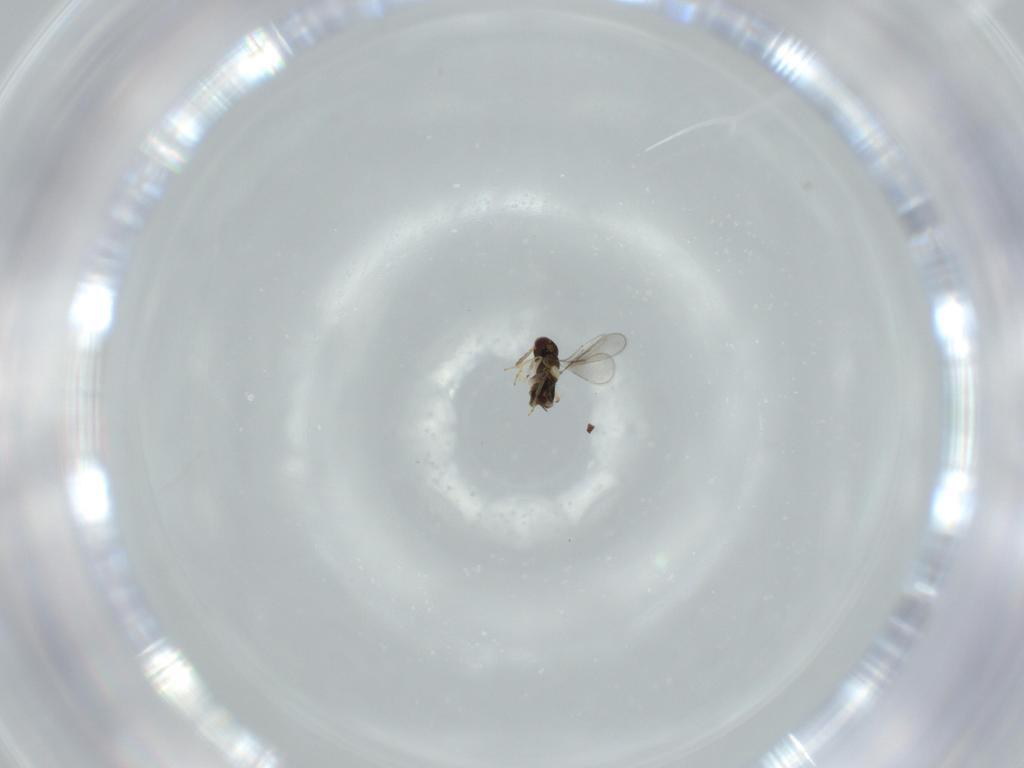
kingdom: Animalia
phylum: Arthropoda
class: Insecta
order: Hymenoptera
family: Aphelinidae
